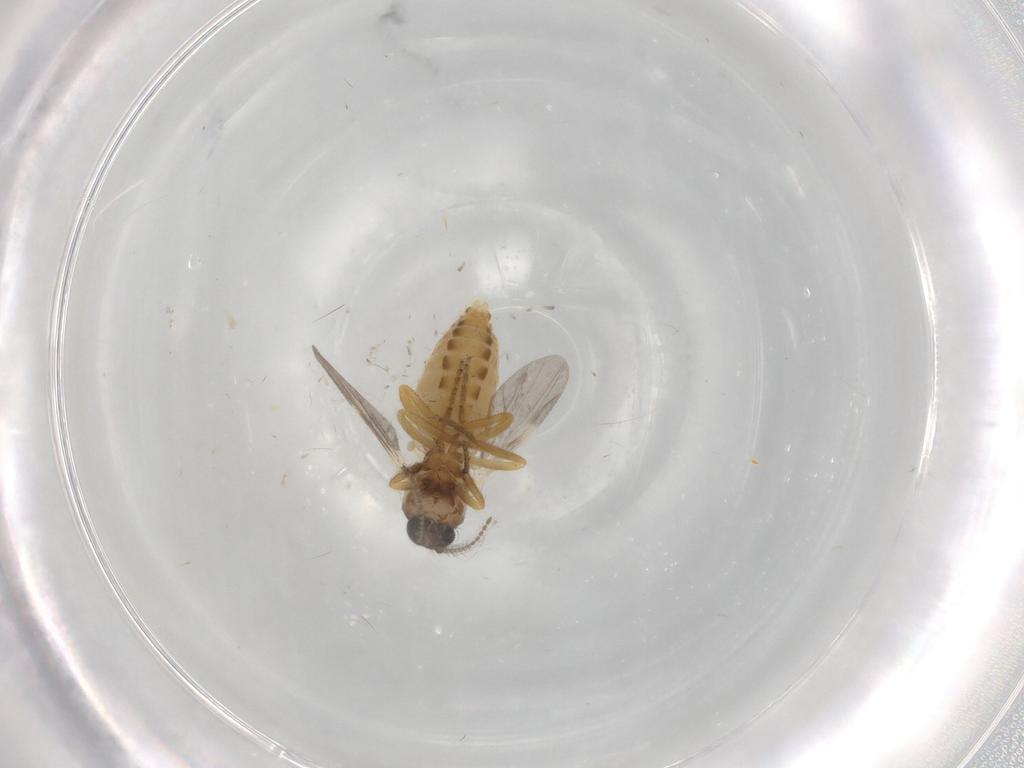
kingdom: Animalia
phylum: Arthropoda
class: Insecta
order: Diptera
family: Ceratopogonidae
